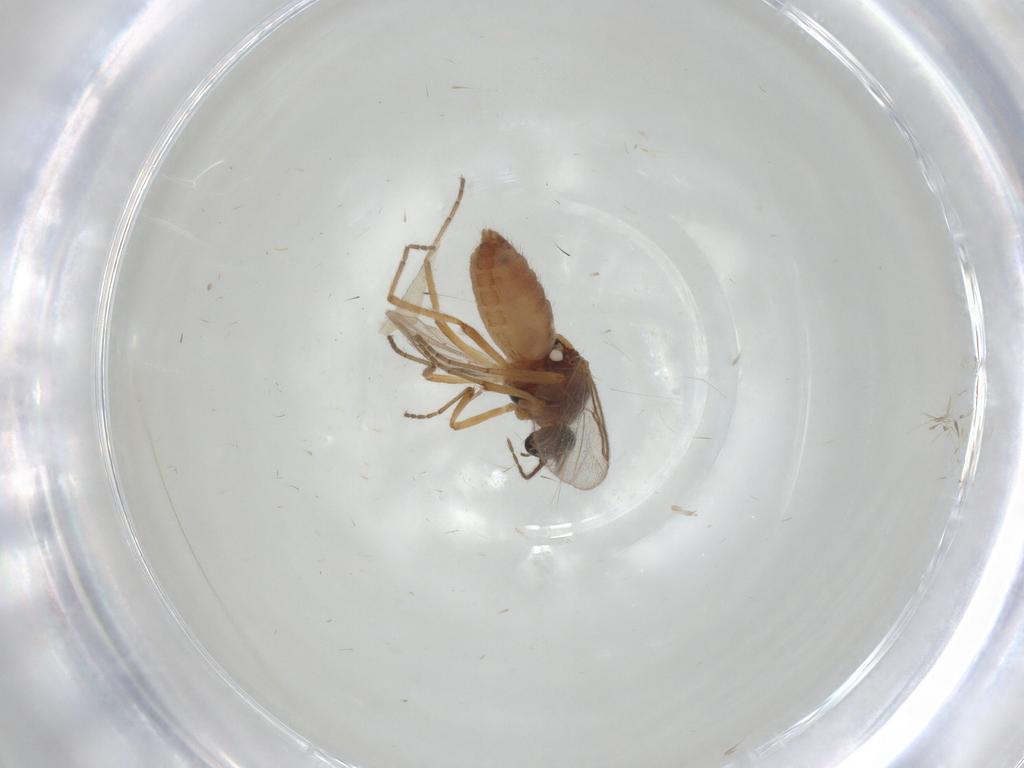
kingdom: Animalia
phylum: Arthropoda
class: Insecta
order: Diptera
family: Ceratopogonidae
